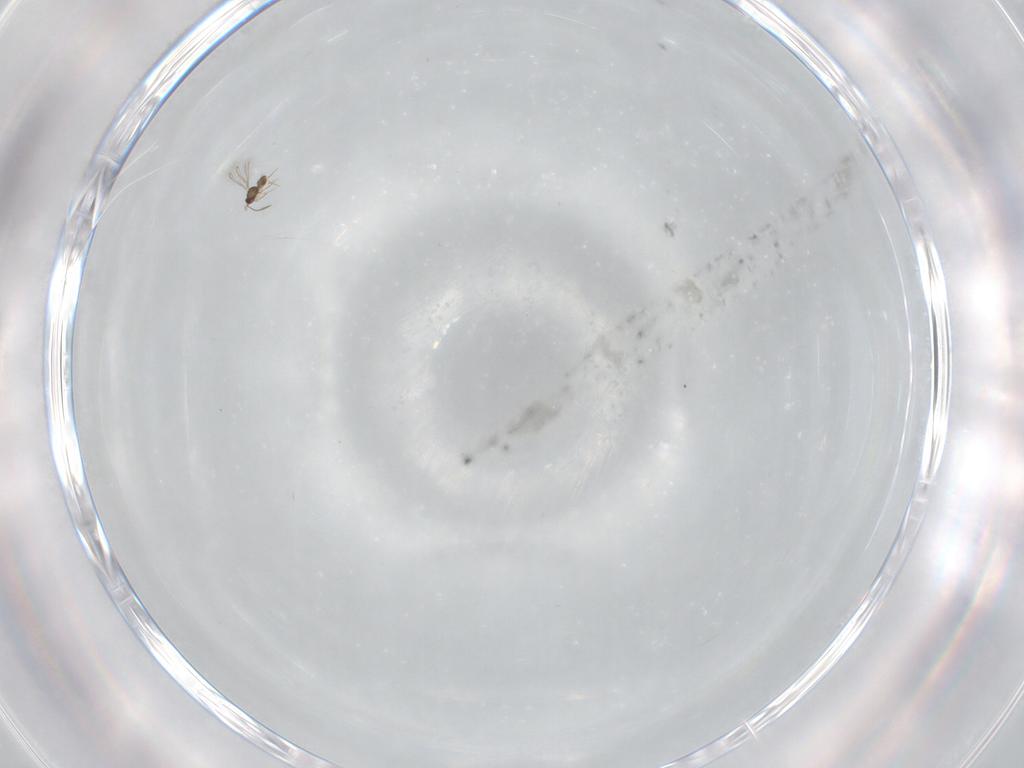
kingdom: Animalia
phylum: Arthropoda
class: Insecta
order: Hymenoptera
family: Mymaridae
